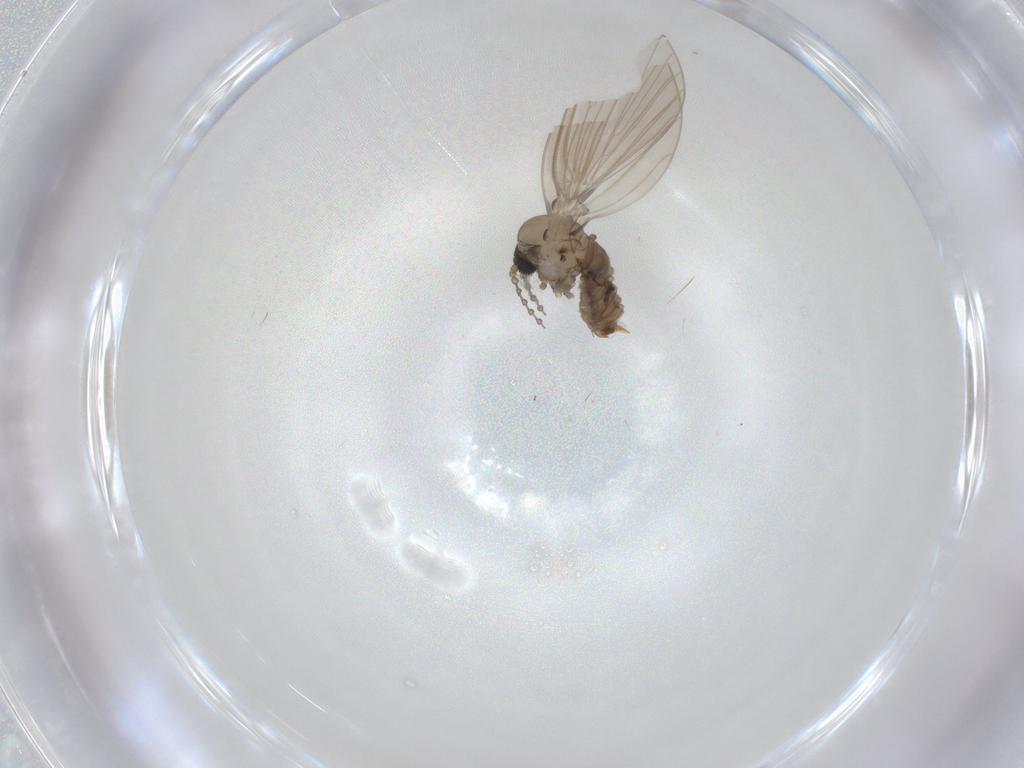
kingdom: Animalia
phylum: Arthropoda
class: Insecta
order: Diptera
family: Psychodidae
